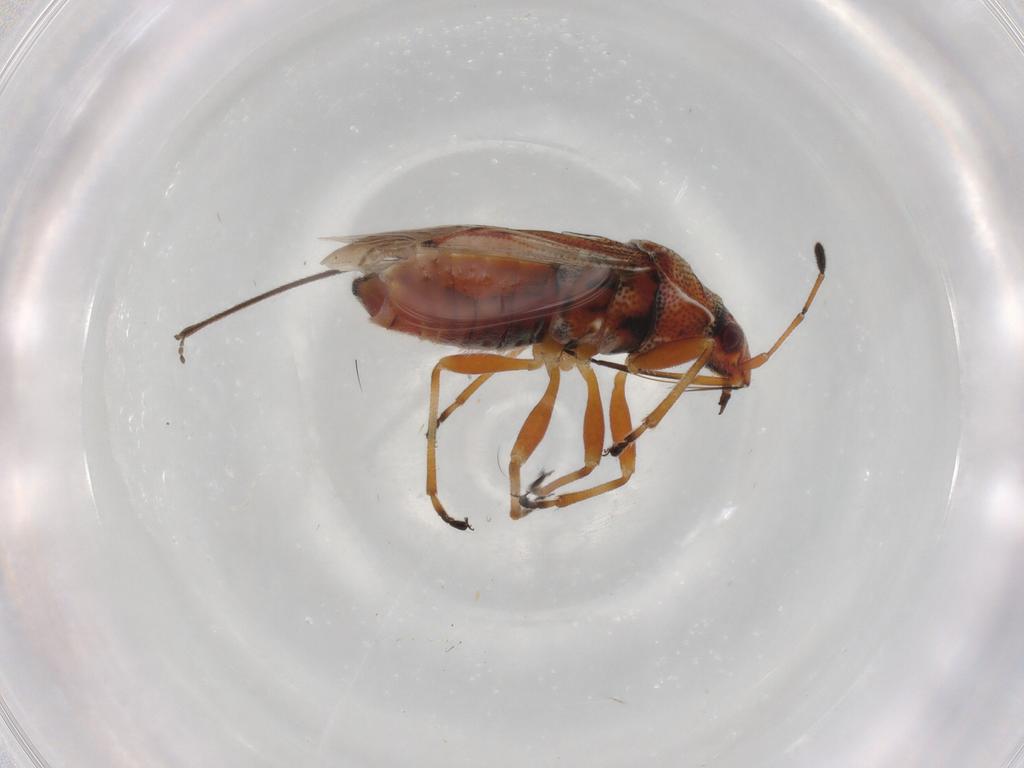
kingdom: Animalia
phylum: Arthropoda
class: Insecta
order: Hemiptera
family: Lygaeidae
